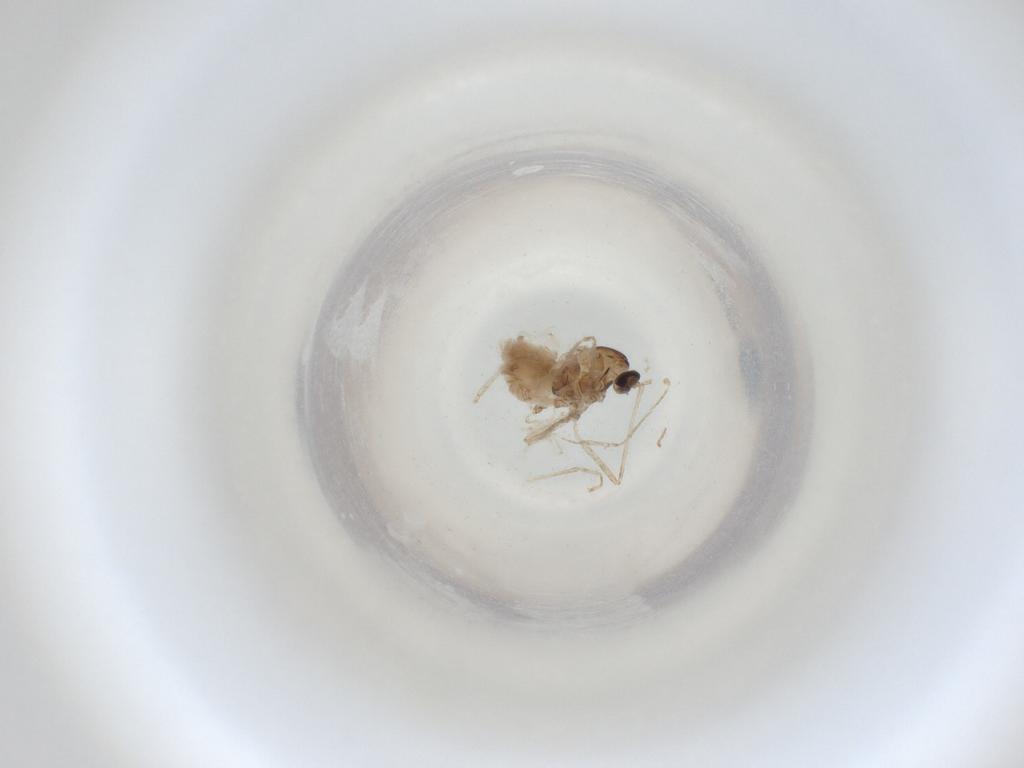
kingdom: Animalia
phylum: Arthropoda
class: Insecta
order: Diptera
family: Cecidomyiidae
